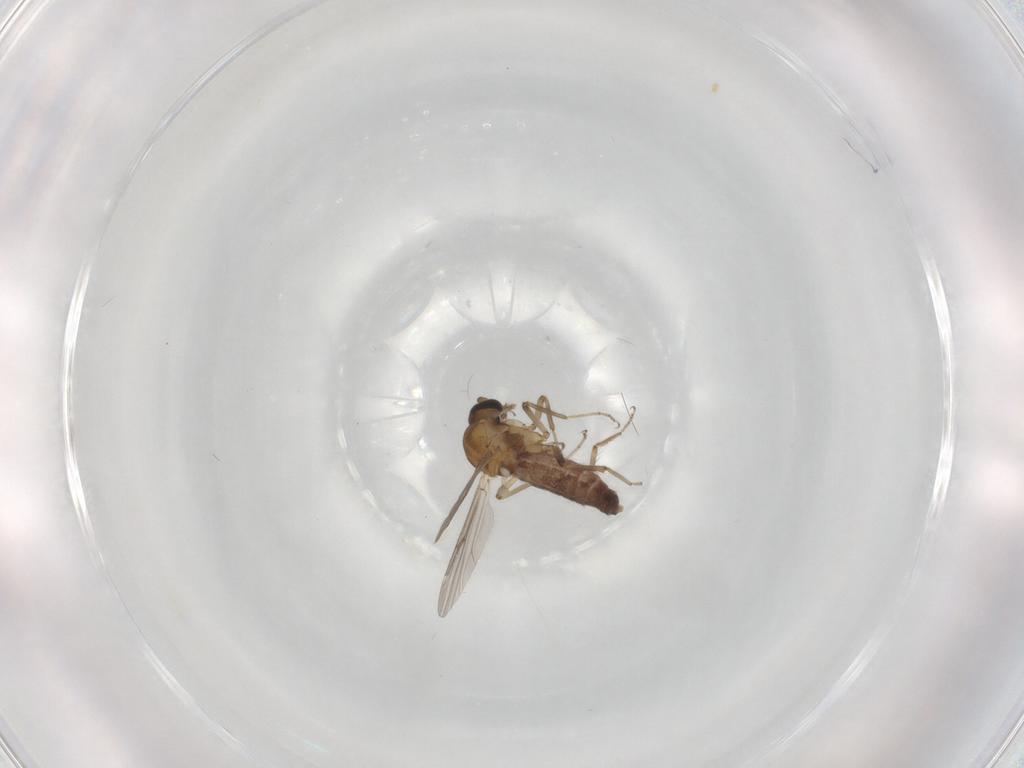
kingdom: Animalia
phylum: Arthropoda
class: Insecta
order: Diptera
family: Ceratopogonidae
